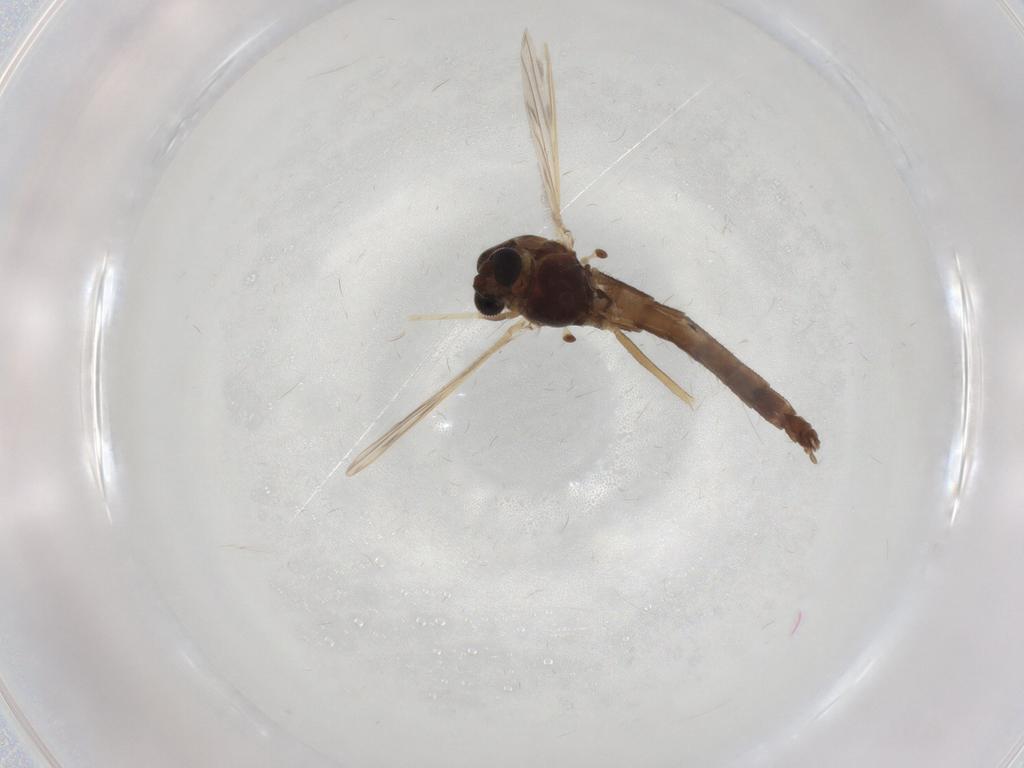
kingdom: Animalia
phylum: Arthropoda
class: Insecta
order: Diptera
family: Chironomidae
